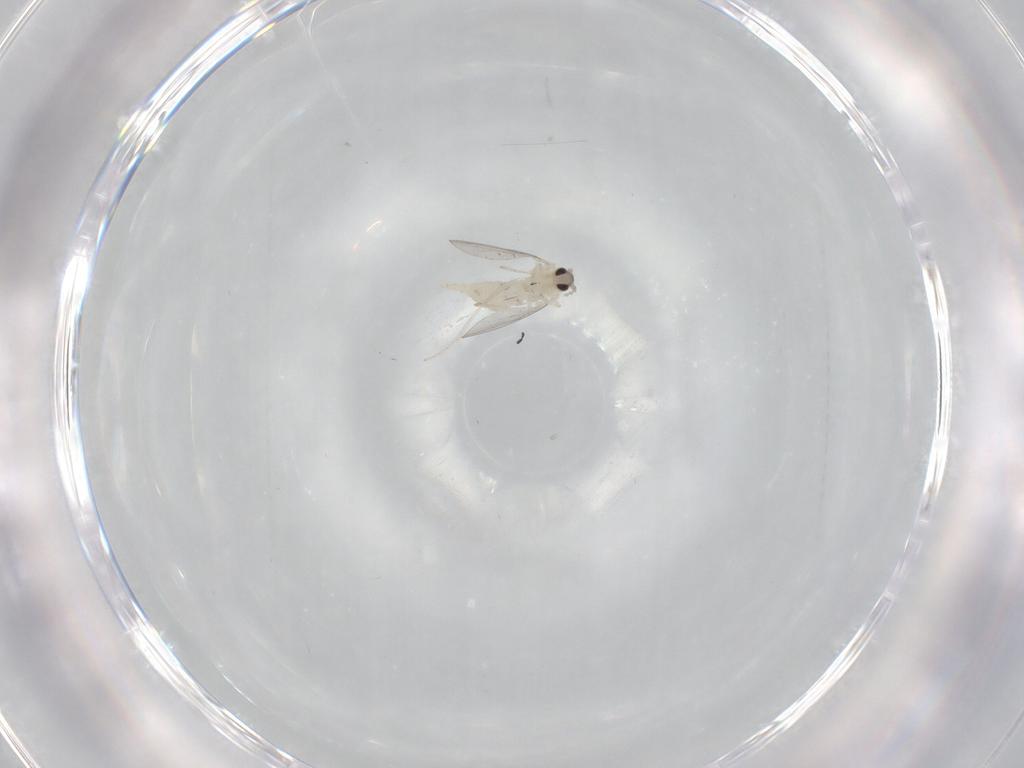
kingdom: Animalia
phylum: Arthropoda
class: Insecta
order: Diptera
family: Cecidomyiidae
